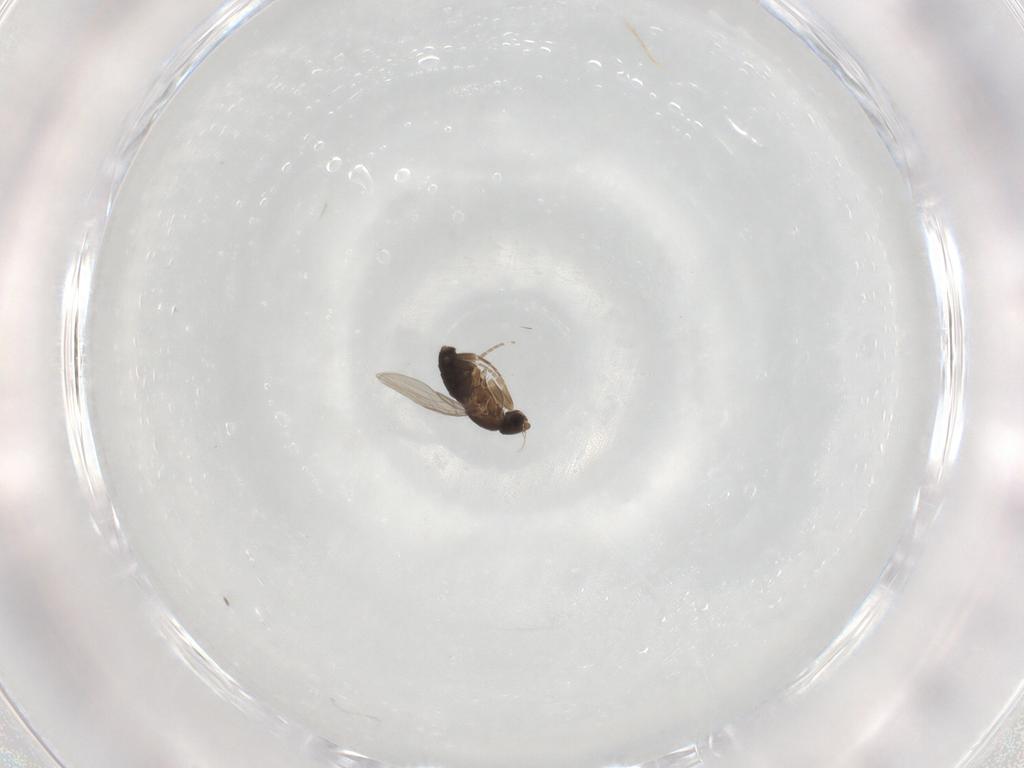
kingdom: Animalia
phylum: Arthropoda
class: Insecta
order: Diptera
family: Phoridae
